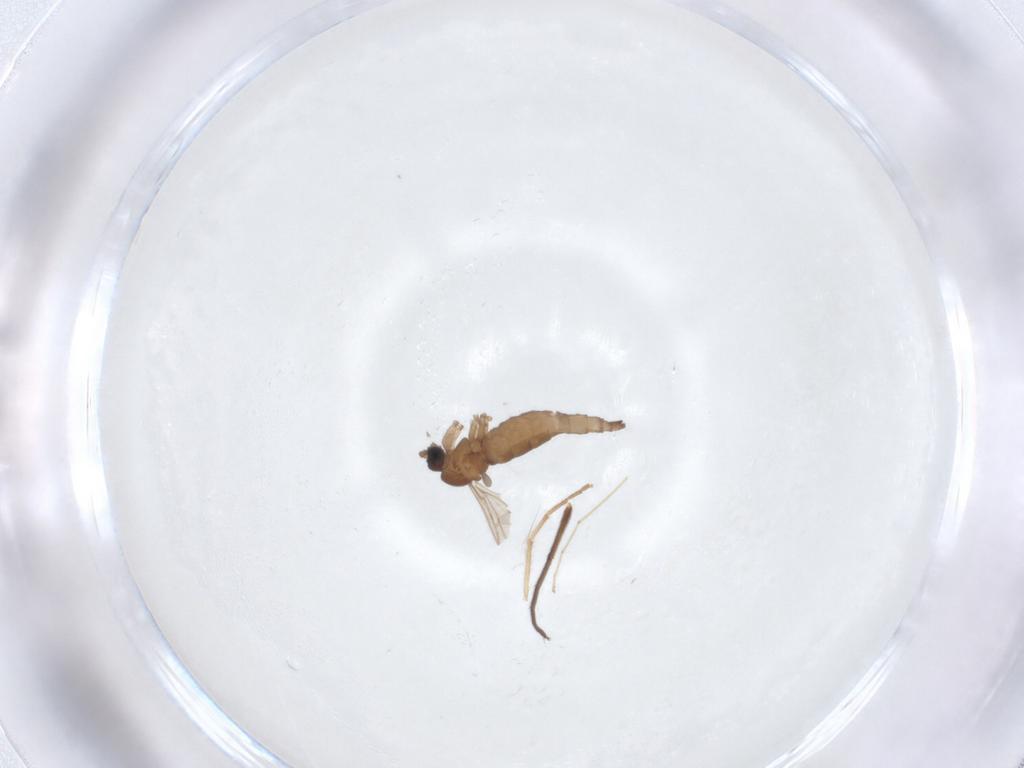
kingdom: Animalia
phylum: Arthropoda
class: Insecta
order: Diptera
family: Ephydridae
